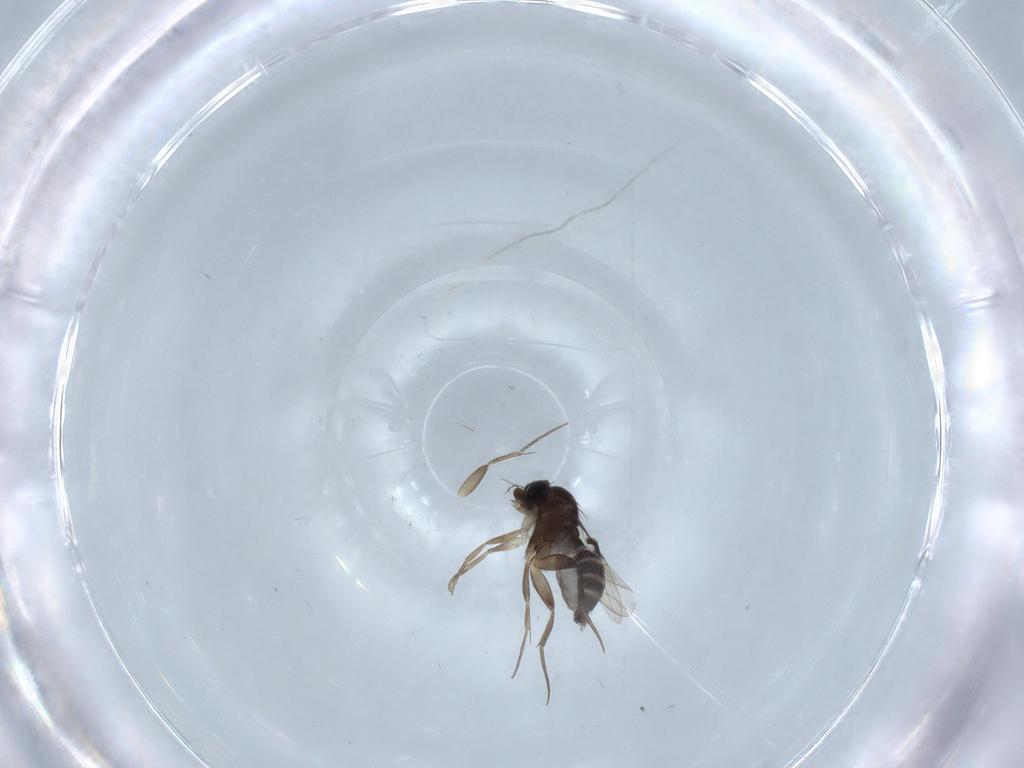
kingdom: Animalia
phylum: Arthropoda
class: Insecta
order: Diptera
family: Phoridae
